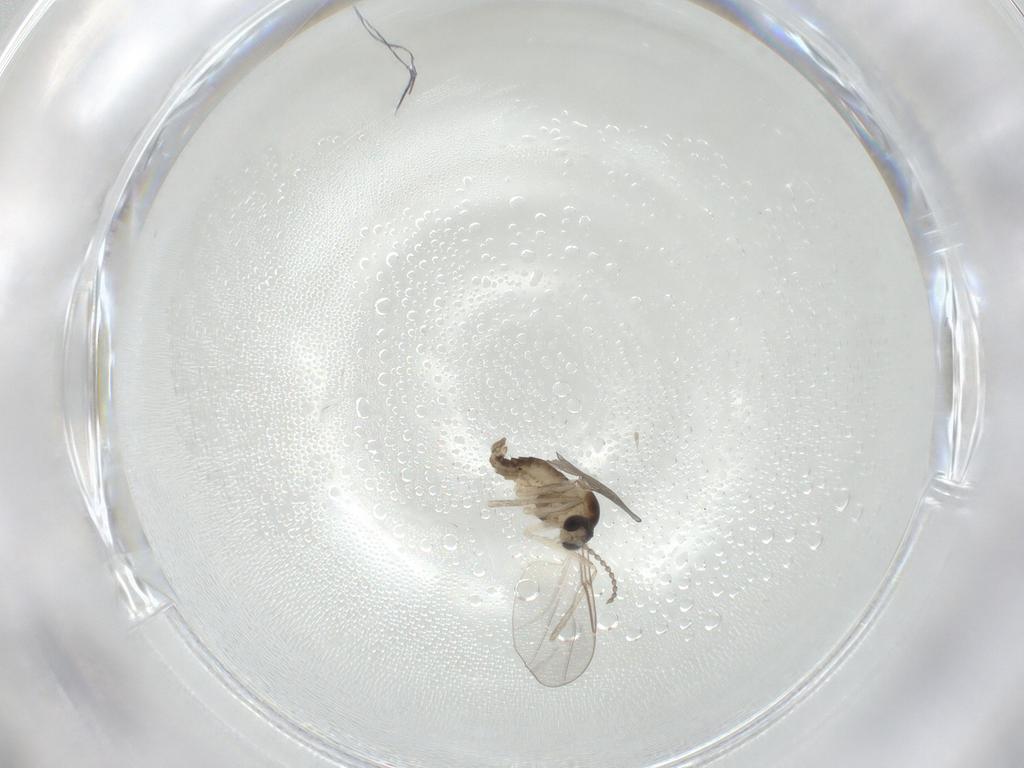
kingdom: Animalia
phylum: Arthropoda
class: Insecta
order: Diptera
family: Cecidomyiidae
